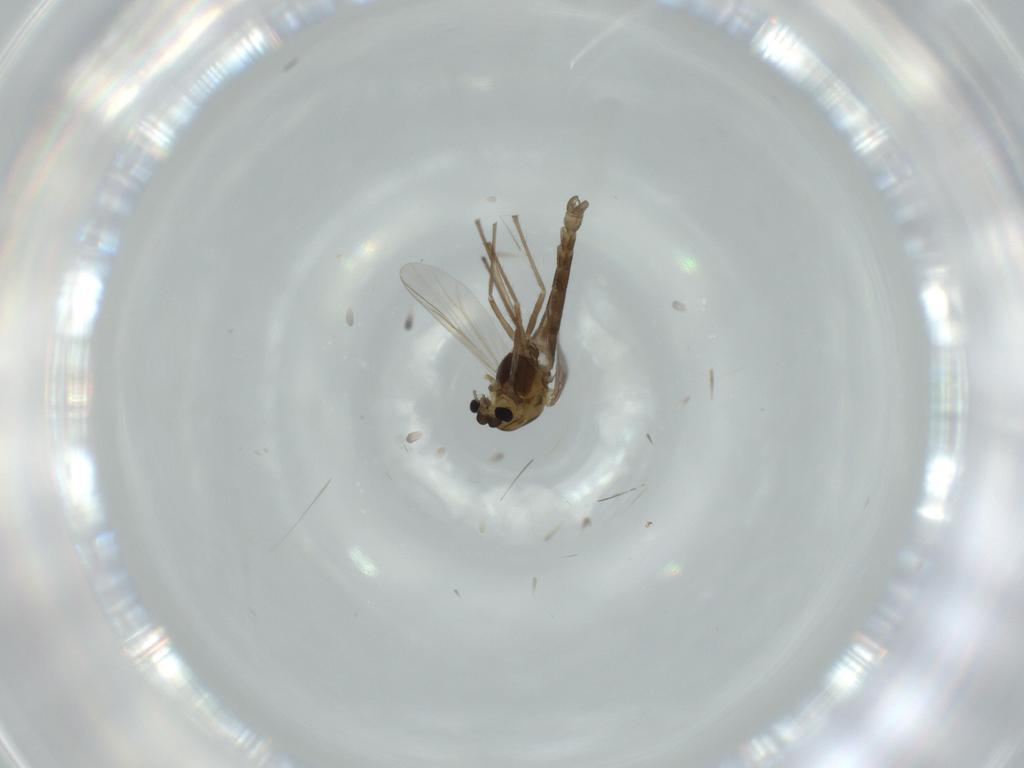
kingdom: Animalia
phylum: Arthropoda
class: Insecta
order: Diptera
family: Chironomidae
